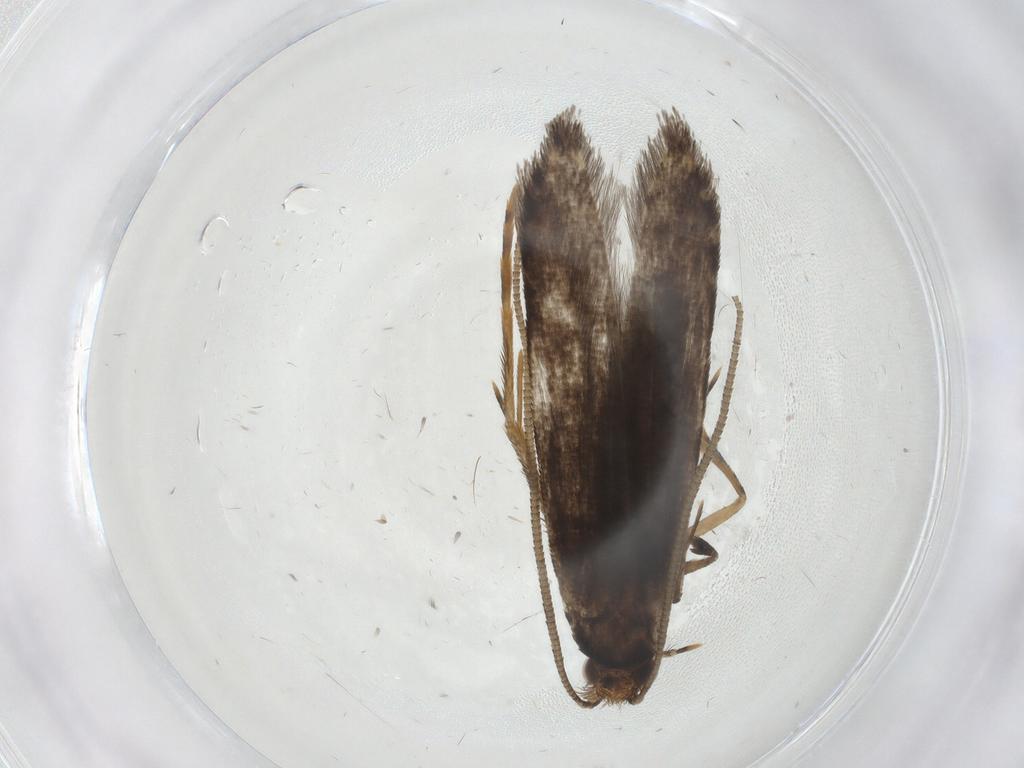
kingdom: Animalia
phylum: Arthropoda
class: Insecta
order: Lepidoptera
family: Tineidae
